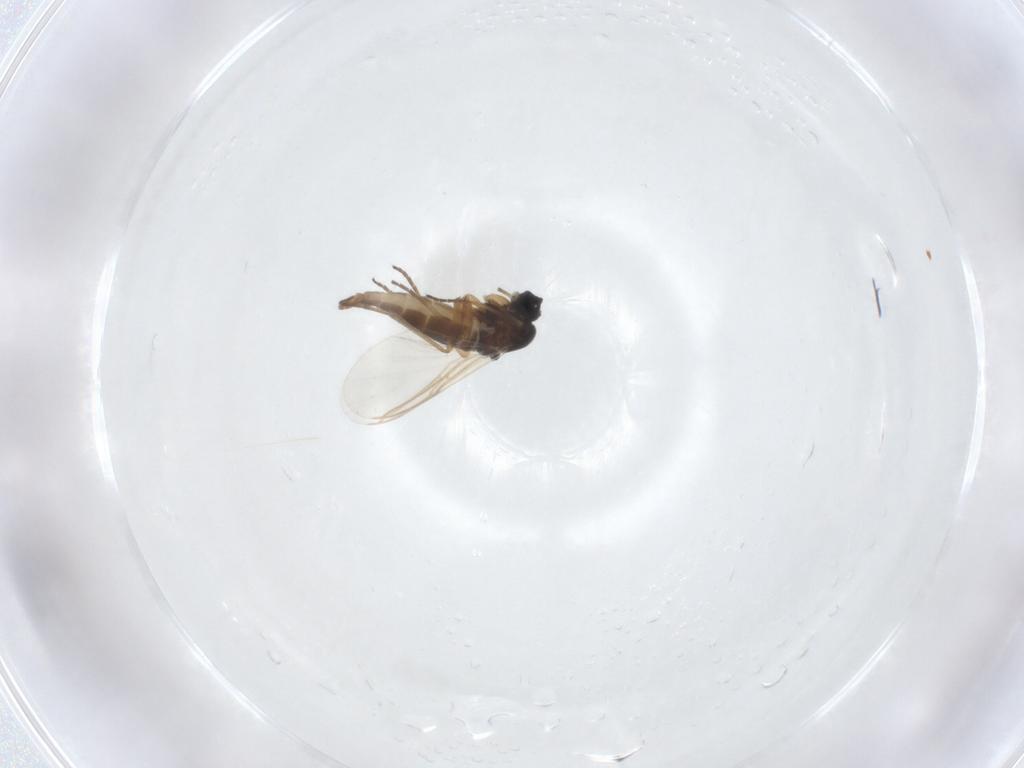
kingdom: Animalia
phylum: Arthropoda
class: Insecta
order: Diptera
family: Sciaridae
